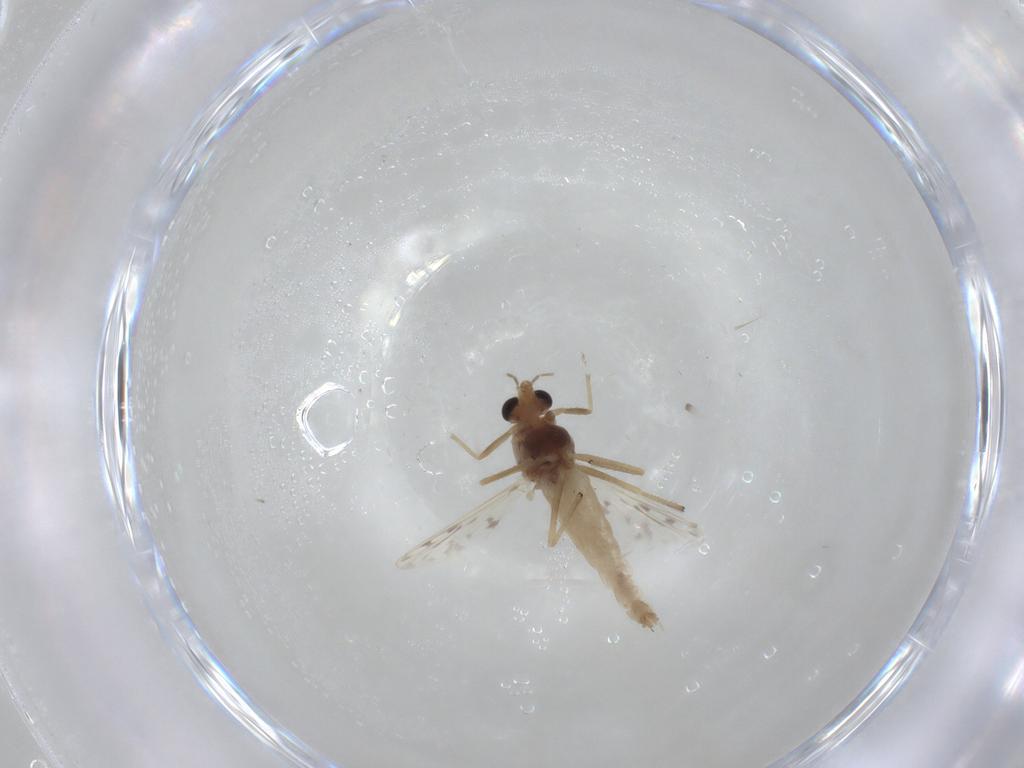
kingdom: Animalia
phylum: Arthropoda
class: Insecta
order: Diptera
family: Chironomidae
